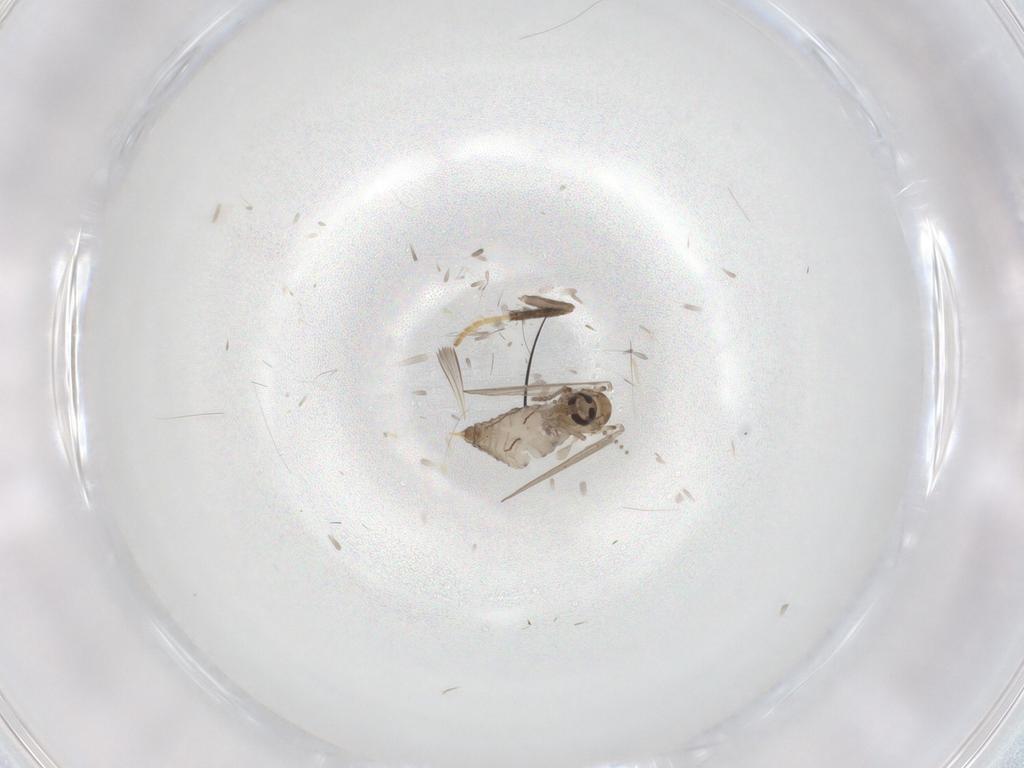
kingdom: Animalia
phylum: Arthropoda
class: Insecta
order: Diptera
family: Psychodidae
